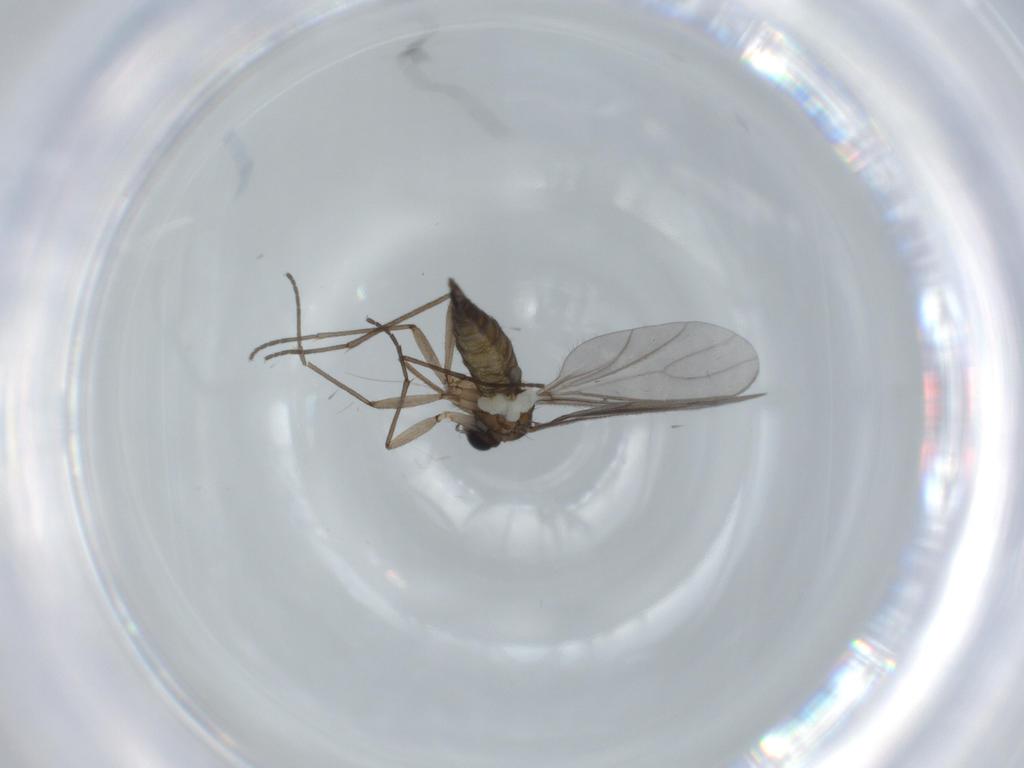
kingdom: Animalia
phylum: Arthropoda
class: Insecta
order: Diptera
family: Sciaridae
